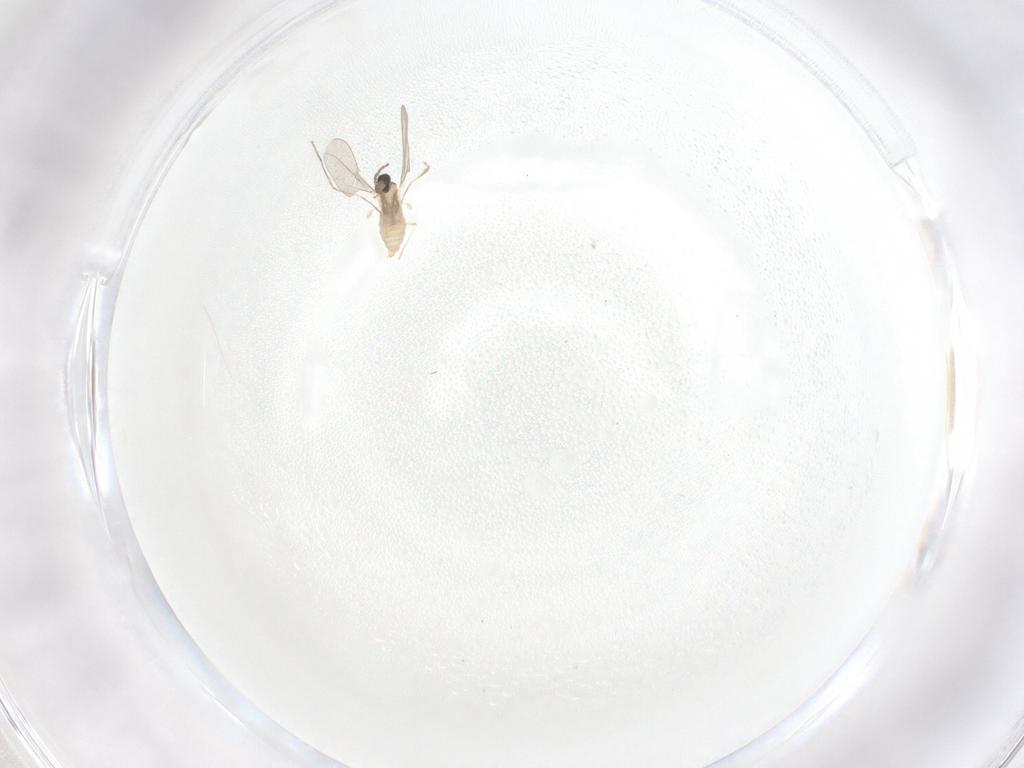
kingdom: Animalia
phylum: Arthropoda
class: Insecta
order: Diptera
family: Cecidomyiidae
